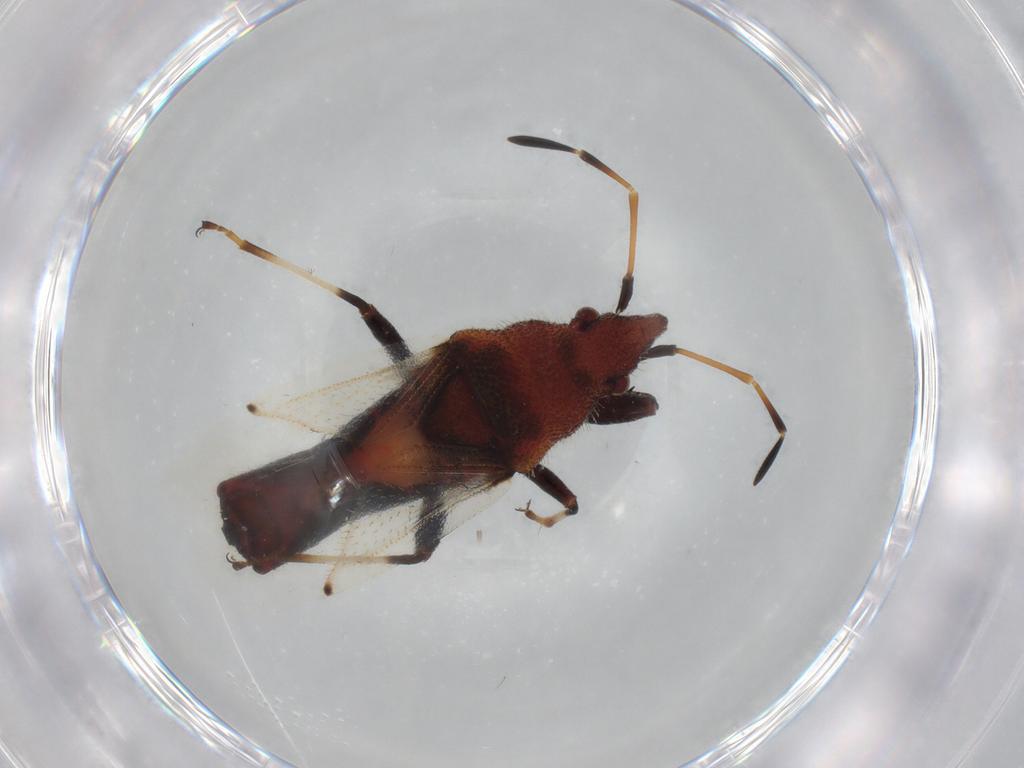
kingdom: Animalia
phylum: Arthropoda
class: Insecta
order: Hemiptera
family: Oxycarenidae
